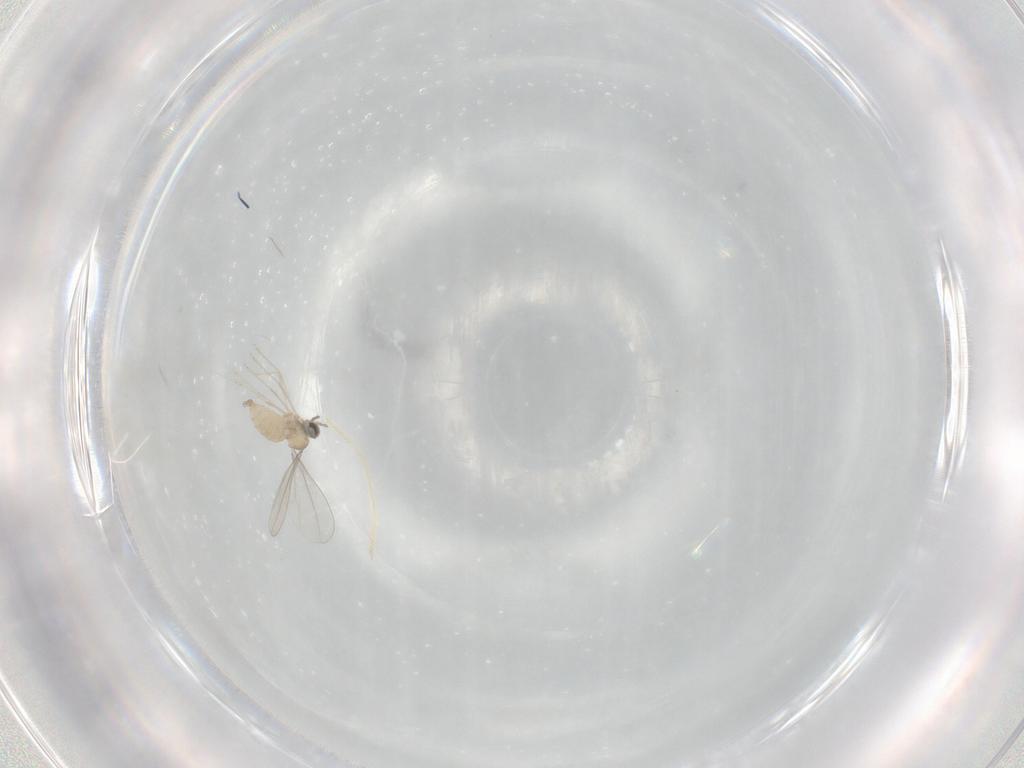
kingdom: Animalia
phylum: Arthropoda
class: Insecta
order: Diptera
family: Cecidomyiidae
